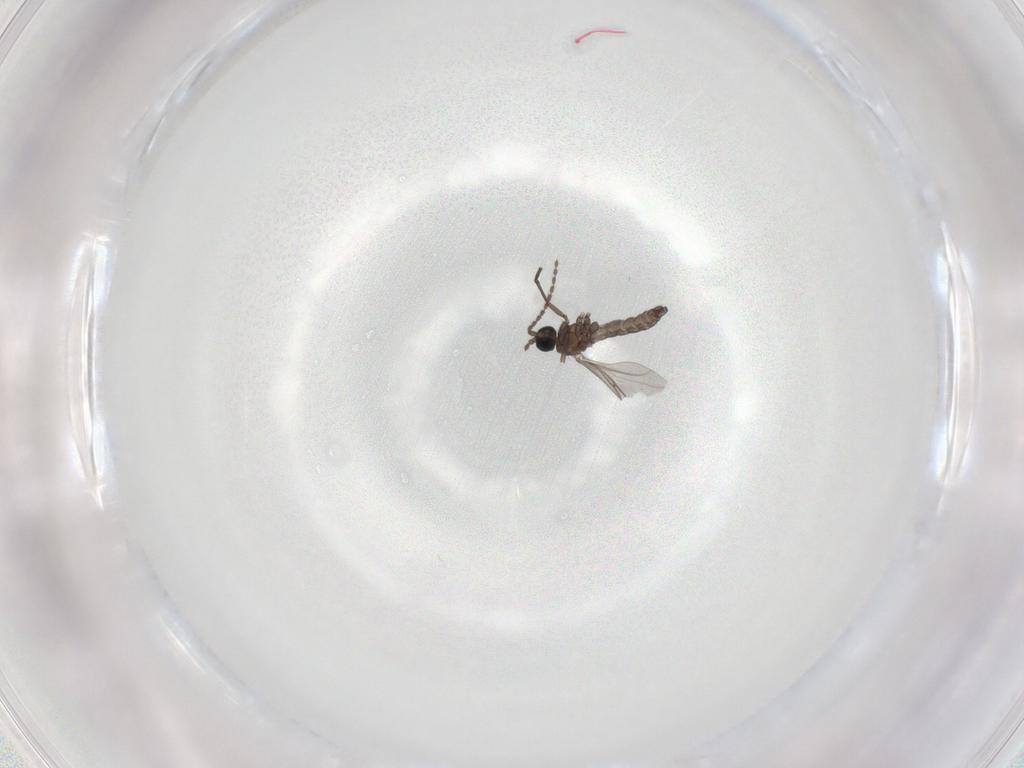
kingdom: Animalia
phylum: Arthropoda
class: Insecta
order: Diptera
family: Sciaridae
